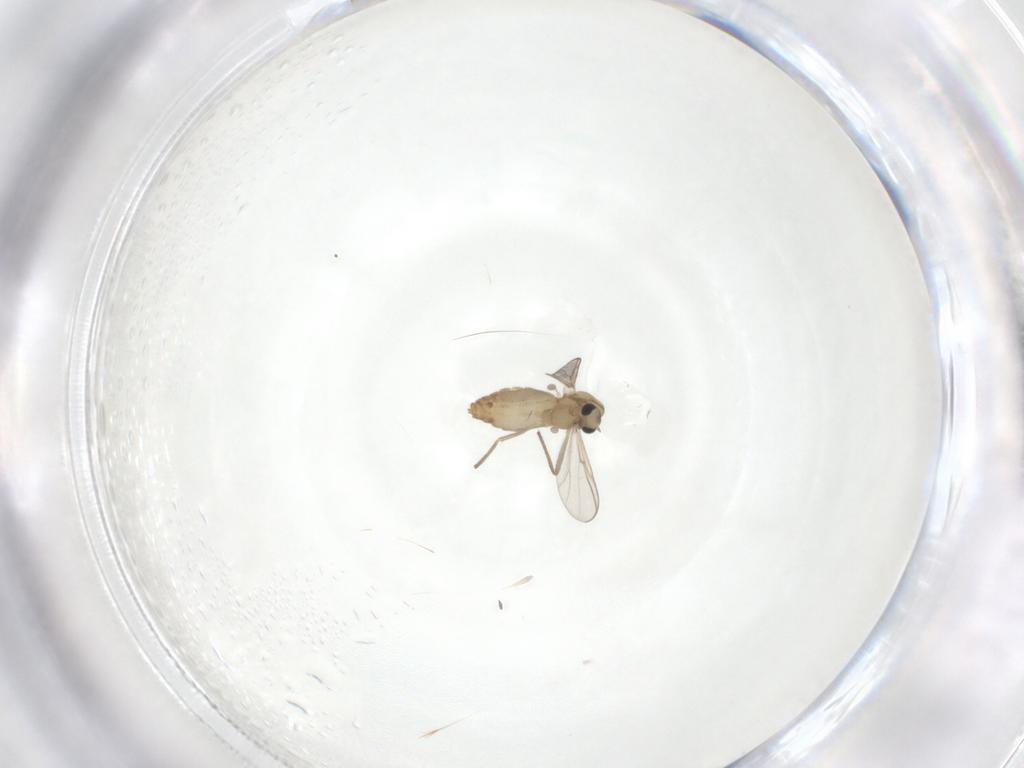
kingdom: Animalia
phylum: Arthropoda
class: Insecta
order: Diptera
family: Chironomidae
